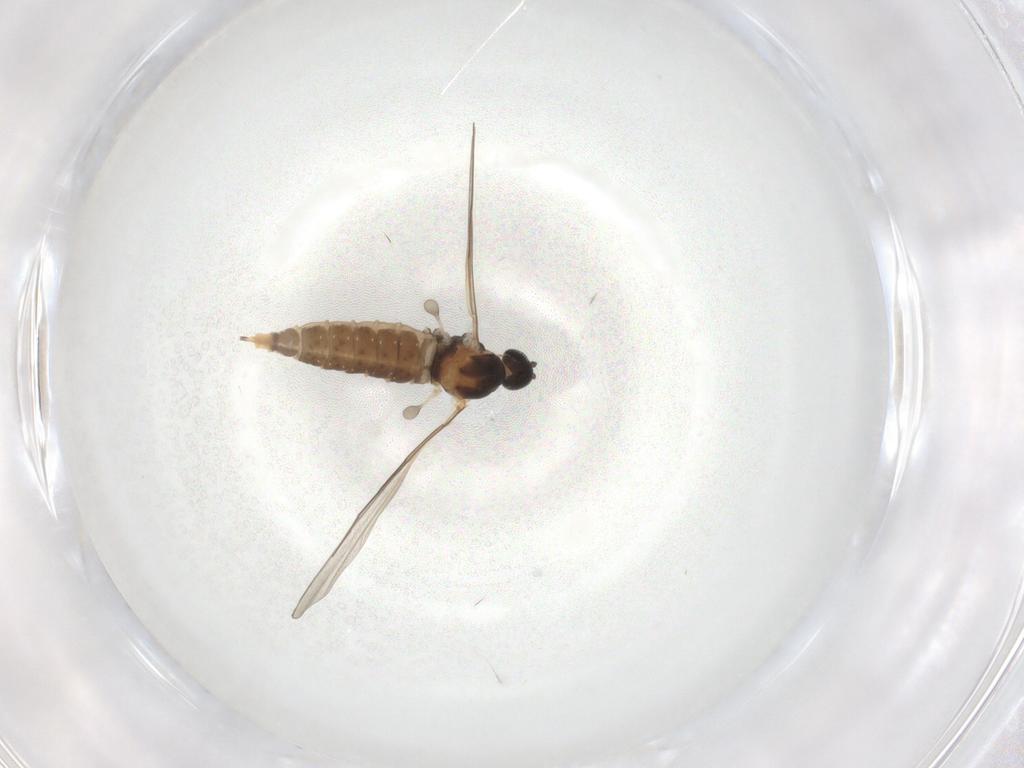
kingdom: Animalia
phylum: Arthropoda
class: Insecta
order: Diptera
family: Cecidomyiidae
